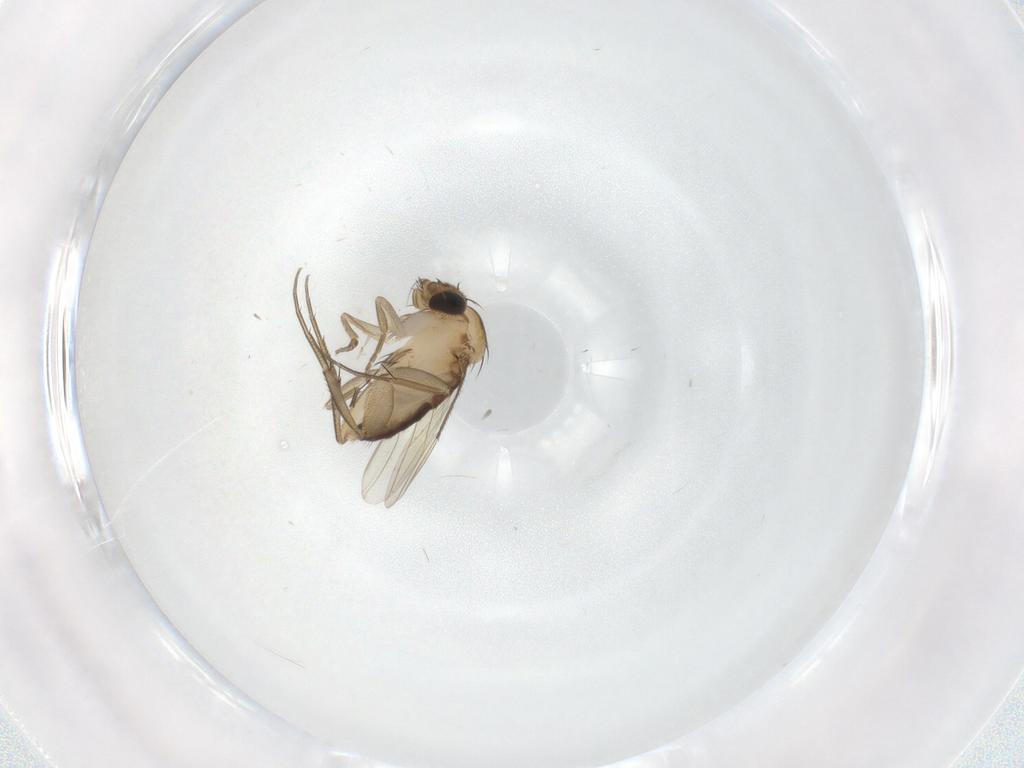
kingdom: Animalia
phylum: Arthropoda
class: Insecta
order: Diptera
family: Phoridae
